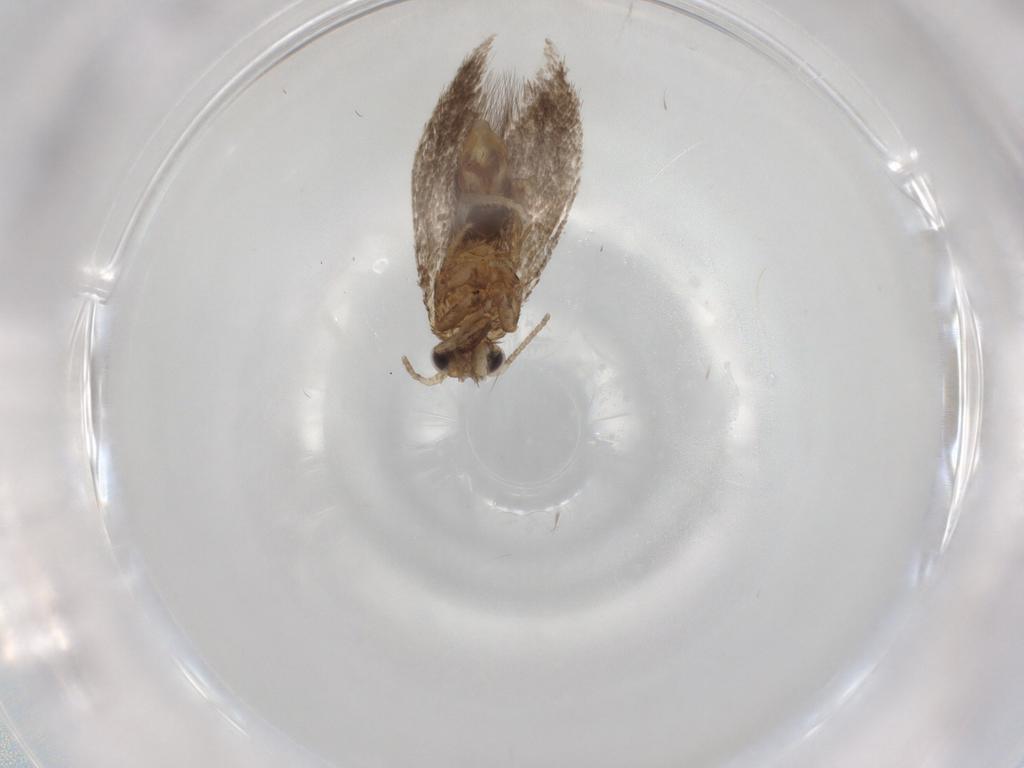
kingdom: Animalia
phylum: Arthropoda
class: Insecta
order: Lepidoptera
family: Tineidae
